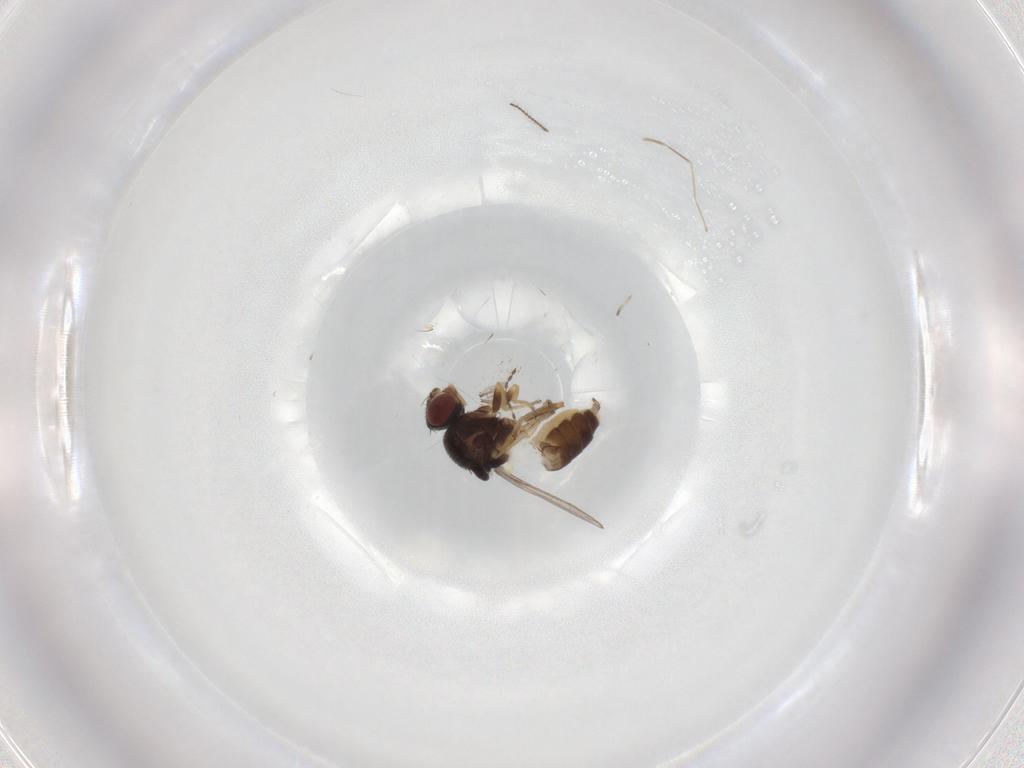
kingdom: Animalia
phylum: Arthropoda
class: Insecta
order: Diptera
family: Chloropidae
